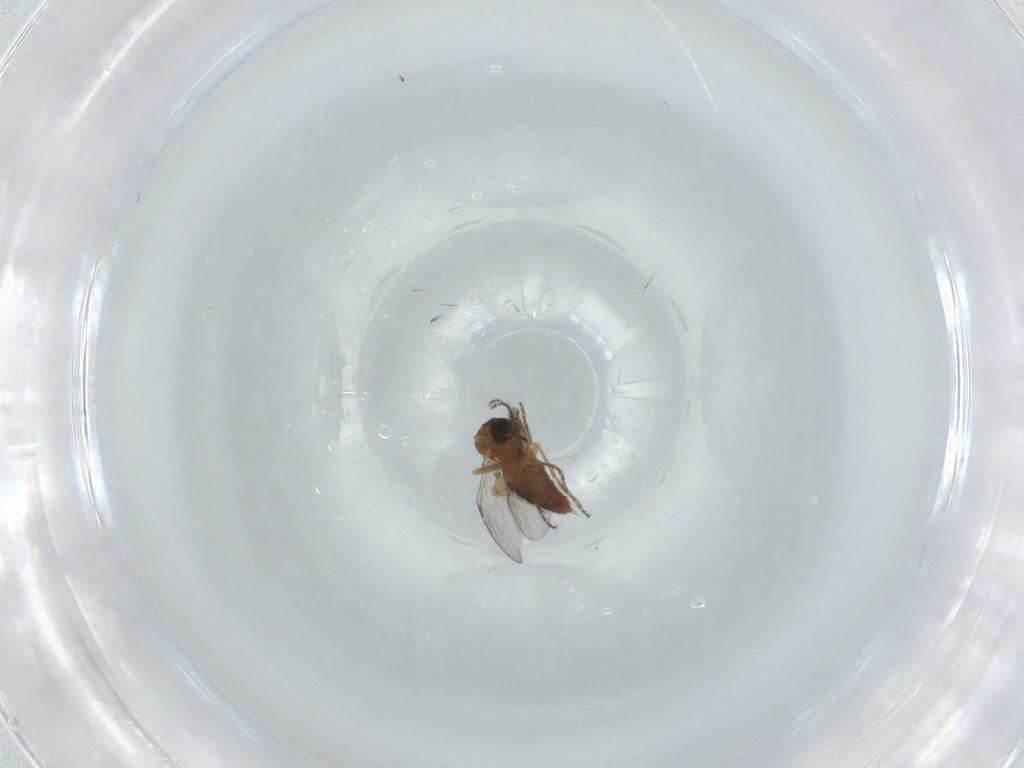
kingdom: Animalia
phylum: Arthropoda
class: Insecta
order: Diptera
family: Ceratopogonidae
